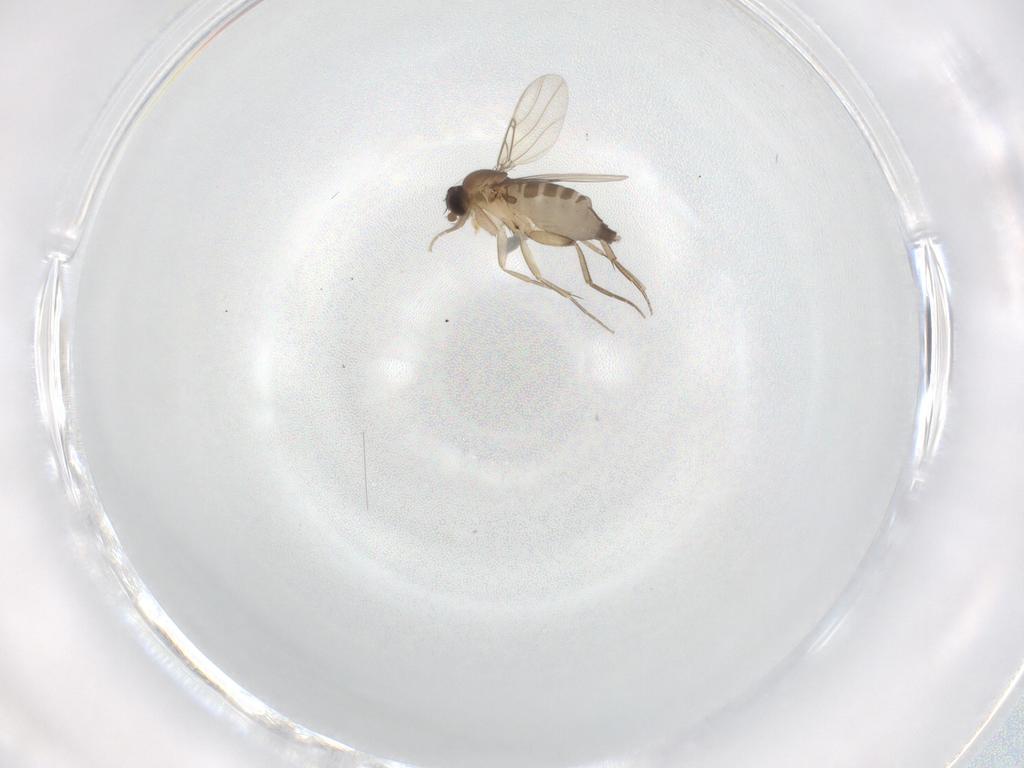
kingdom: Animalia
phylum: Arthropoda
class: Insecta
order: Diptera
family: Phoridae
